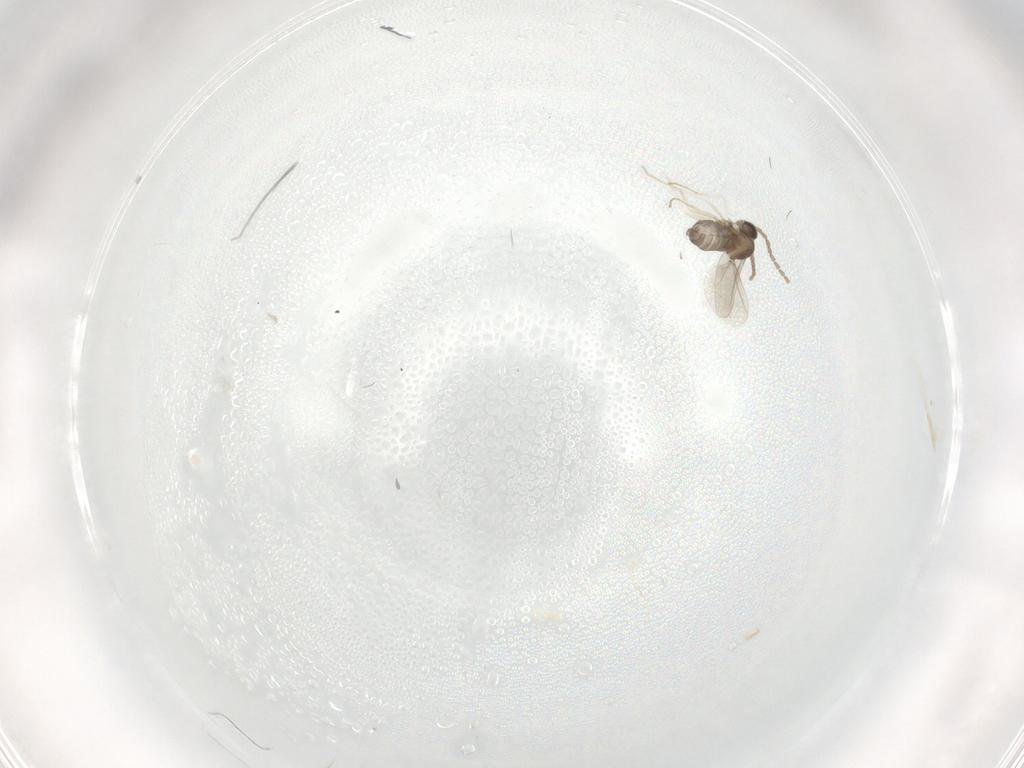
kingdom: Animalia
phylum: Arthropoda
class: Insecta
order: Diptera
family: Cecidomyiidae
